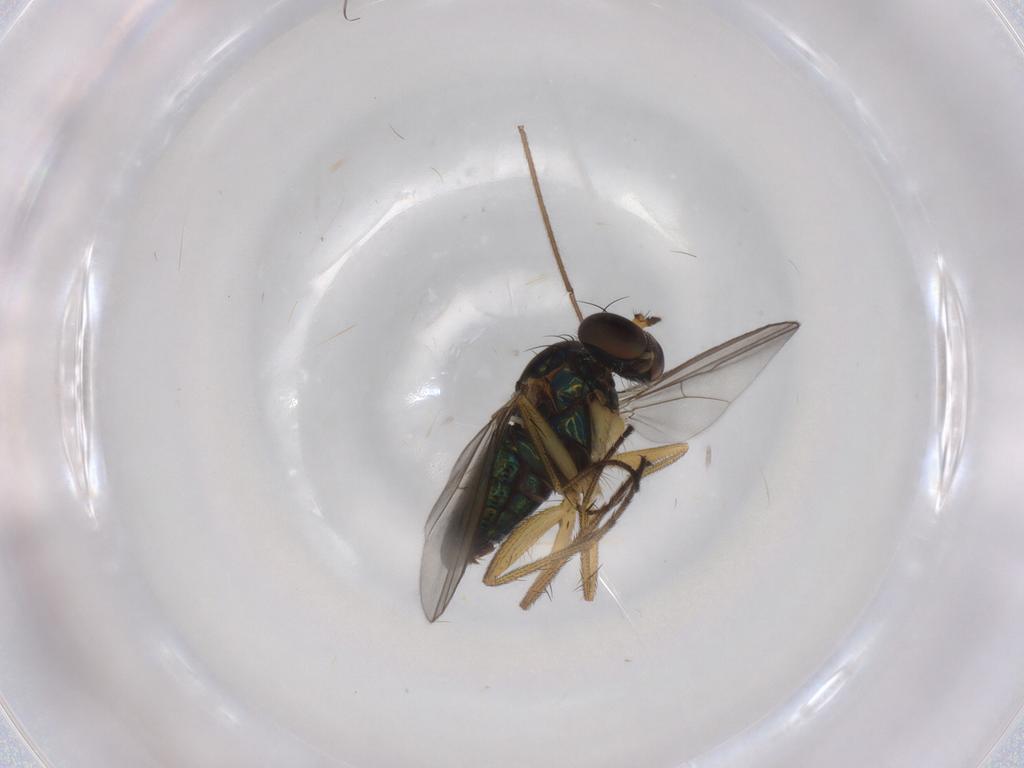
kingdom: Animalia
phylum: Arthropoda
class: Insecta
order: Diptera
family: Dolichopodidae
